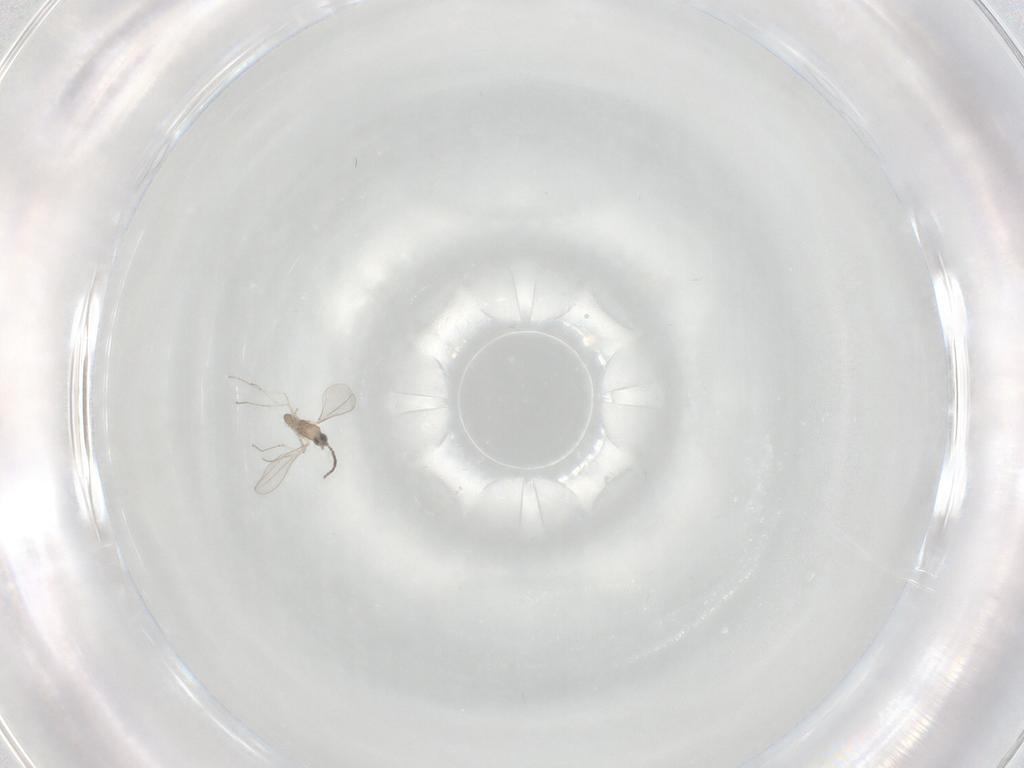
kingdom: Animalia
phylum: Arthropoda
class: Insecta
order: Diptera
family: Cecidomyiidae
